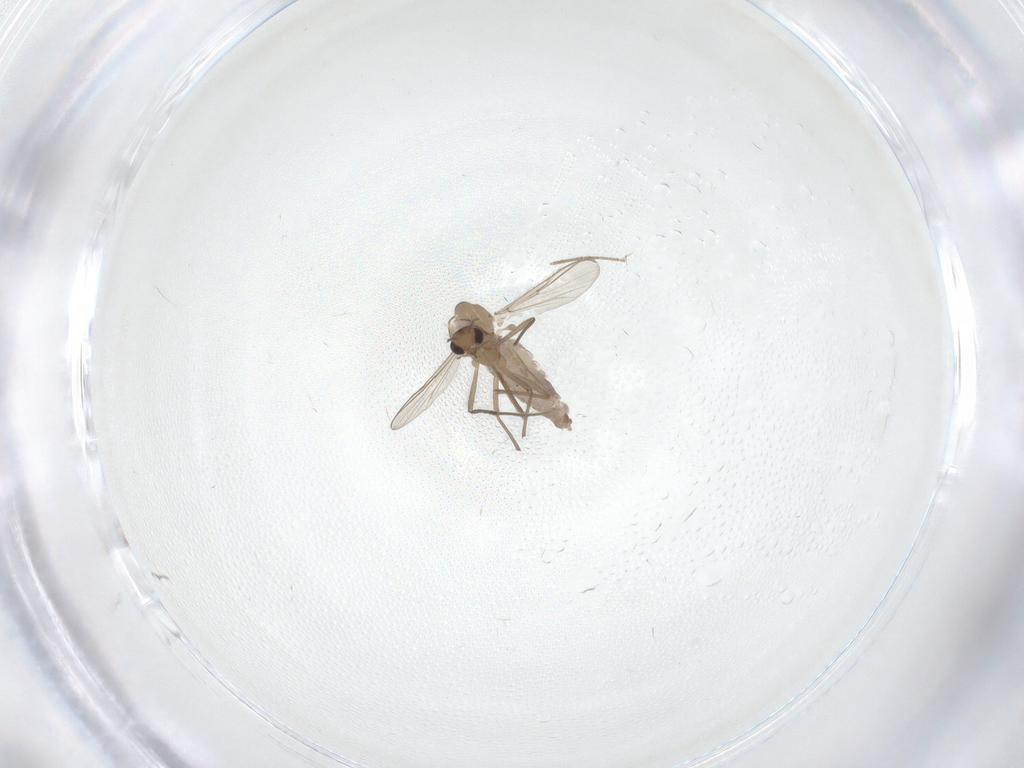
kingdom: Animalia
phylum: Arthropoda
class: Insecta
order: Diptera
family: Chironomidae
